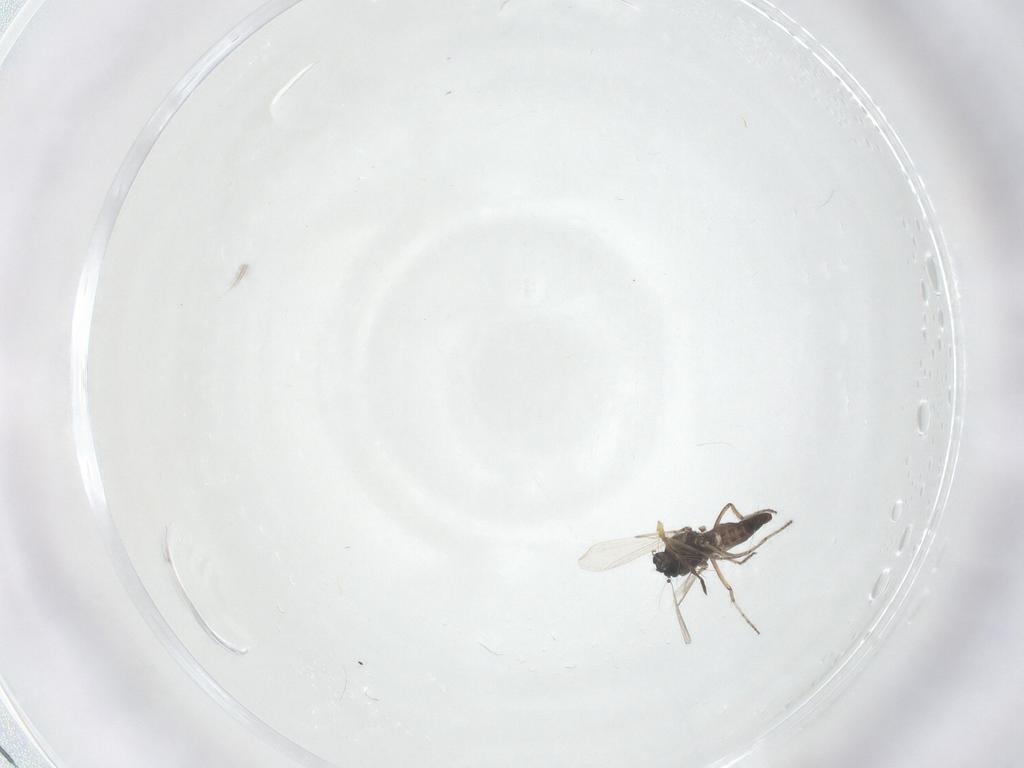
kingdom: Animalia
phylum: Arthropoda
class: Insecta
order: Diptera
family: Ceratopogonidae
